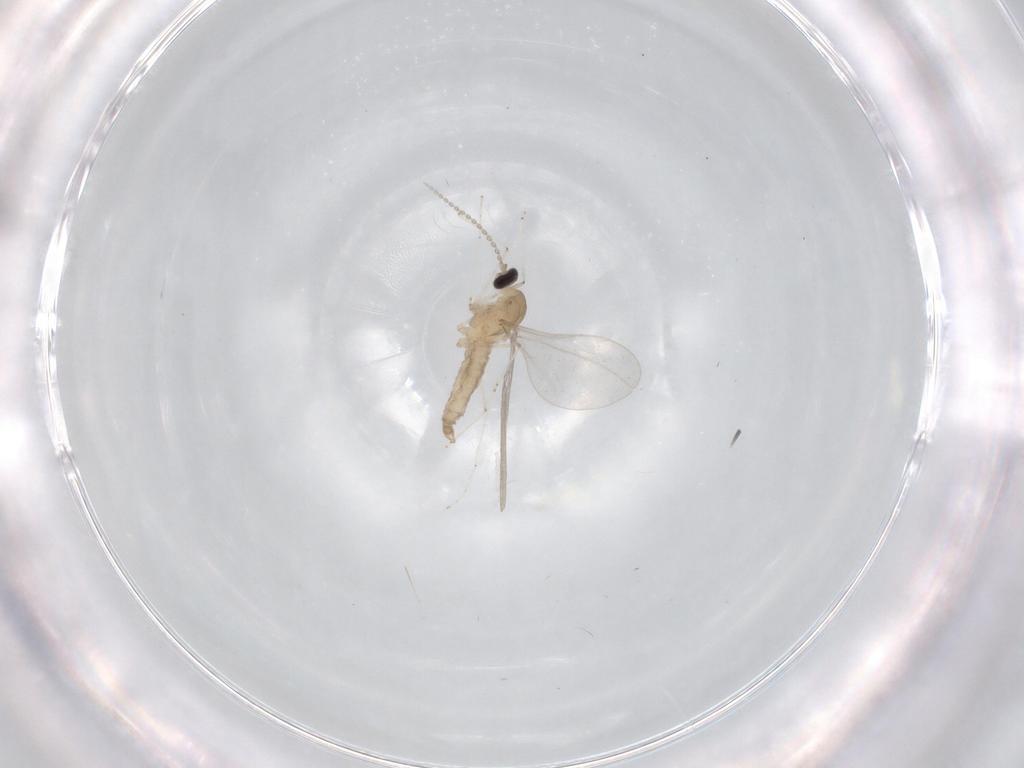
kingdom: Animalia
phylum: Arthropoda
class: Insecta
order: Diptera
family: Cecidomyiidae
